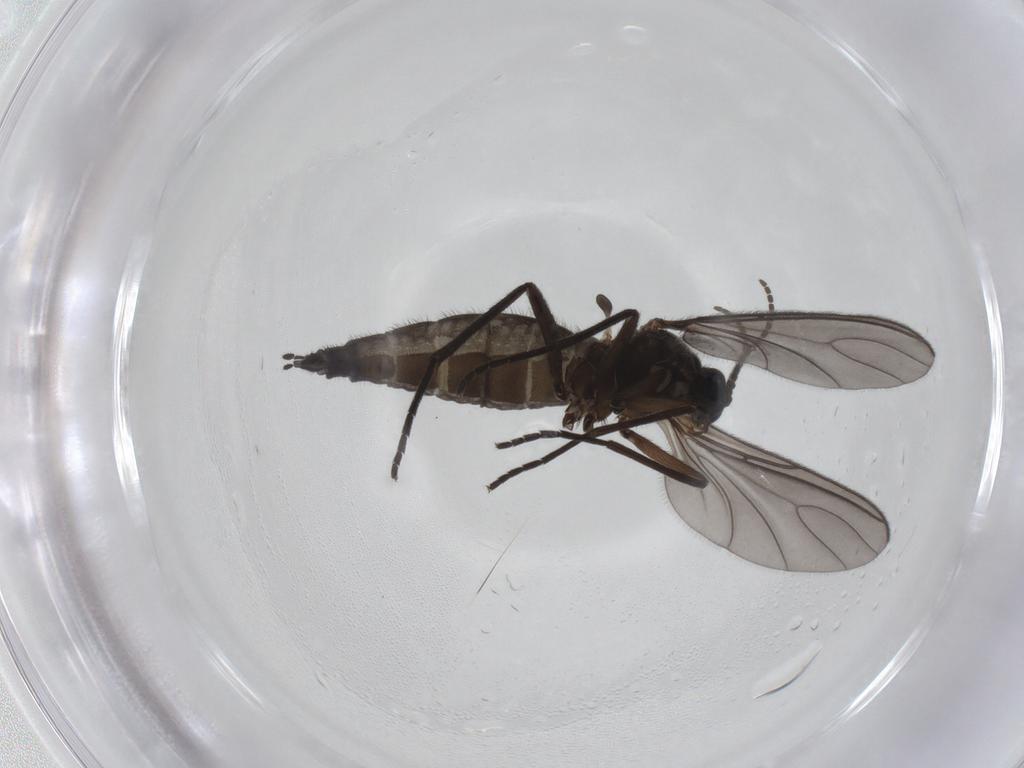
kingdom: Animalia
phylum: Arthropoda
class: Insecta
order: Diptera
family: Sciaridae
